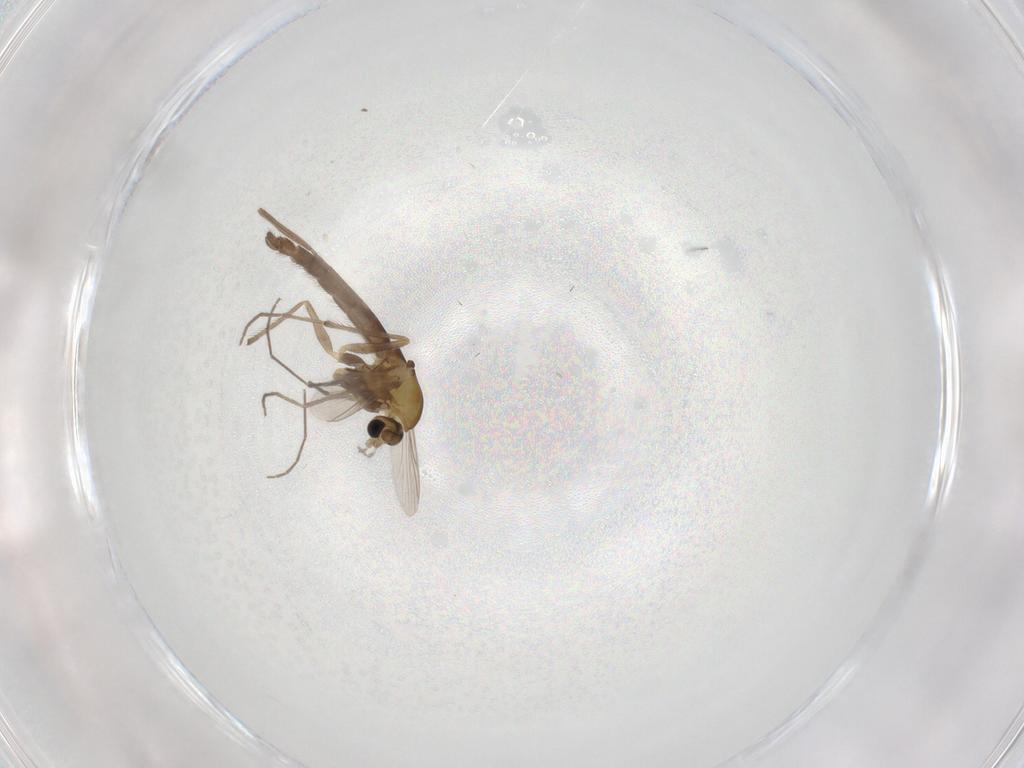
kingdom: Animalia
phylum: Arthropoda
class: Insecta
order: Diptera
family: Chironomidae
